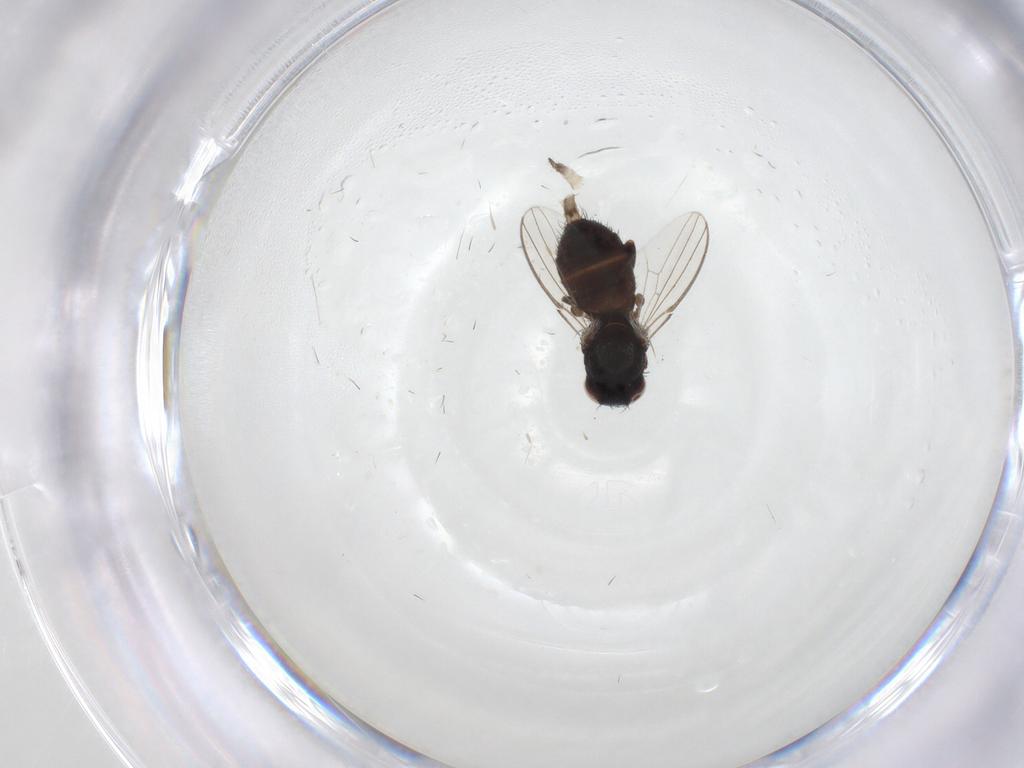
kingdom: Animalia
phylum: Arthropoda
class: Insecta
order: Diptera
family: Milichiidae
